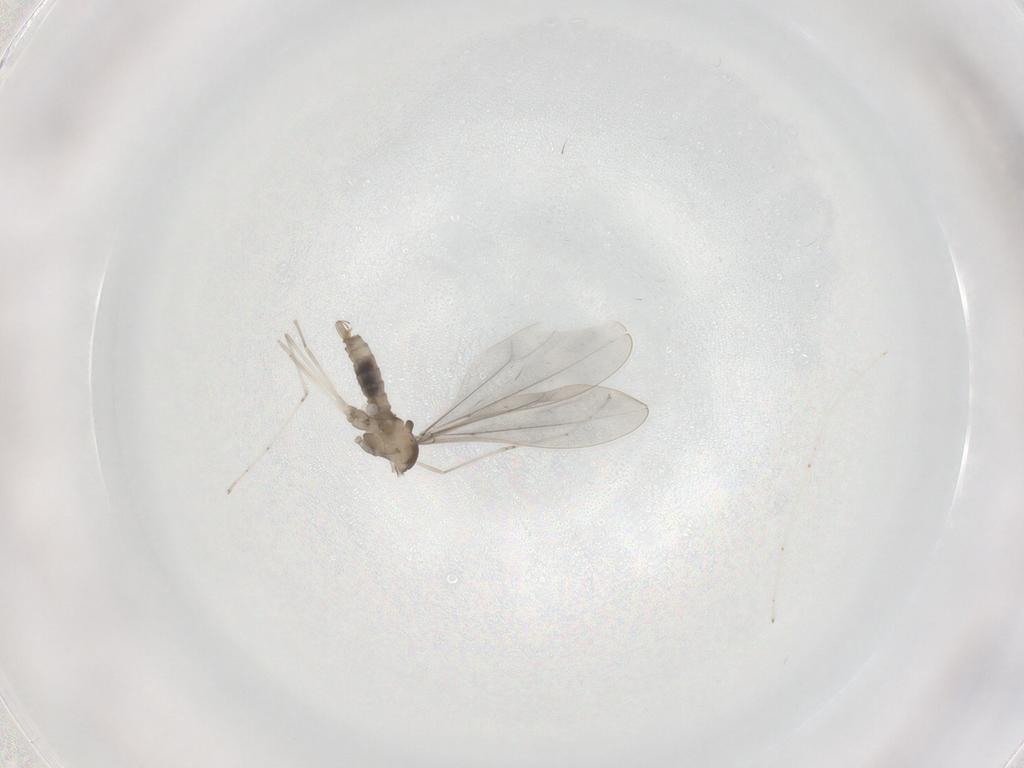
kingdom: Animalia
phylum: Arthropoda
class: Insecta
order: Diptera
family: Cecidomyiidae
